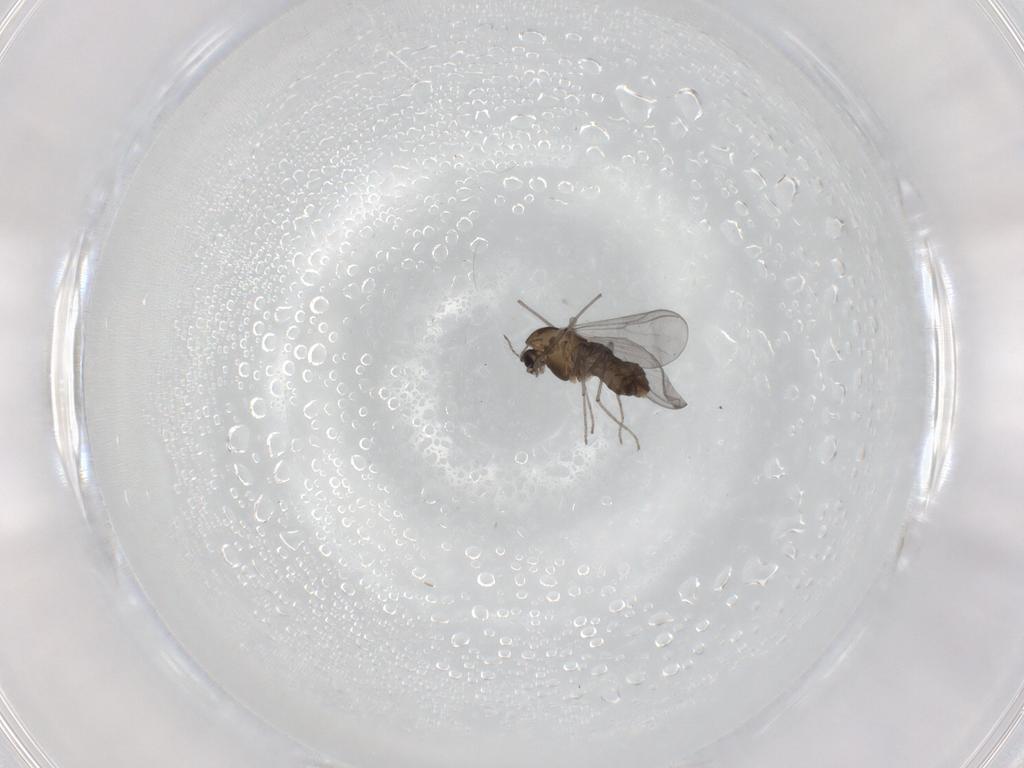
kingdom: Animalia
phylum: Arthropoda
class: Insecta
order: Diptera
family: Chironomidae
